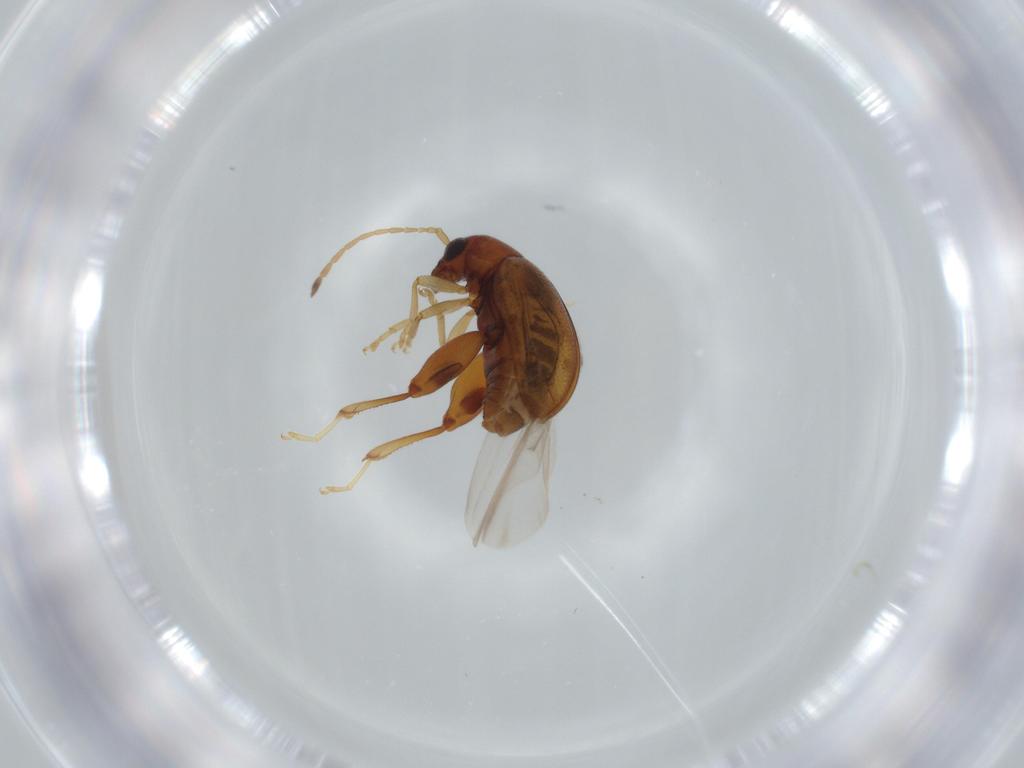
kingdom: Animalia
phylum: Arthropoda
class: Insecta
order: Coleoptera
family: Chrysomelidae
